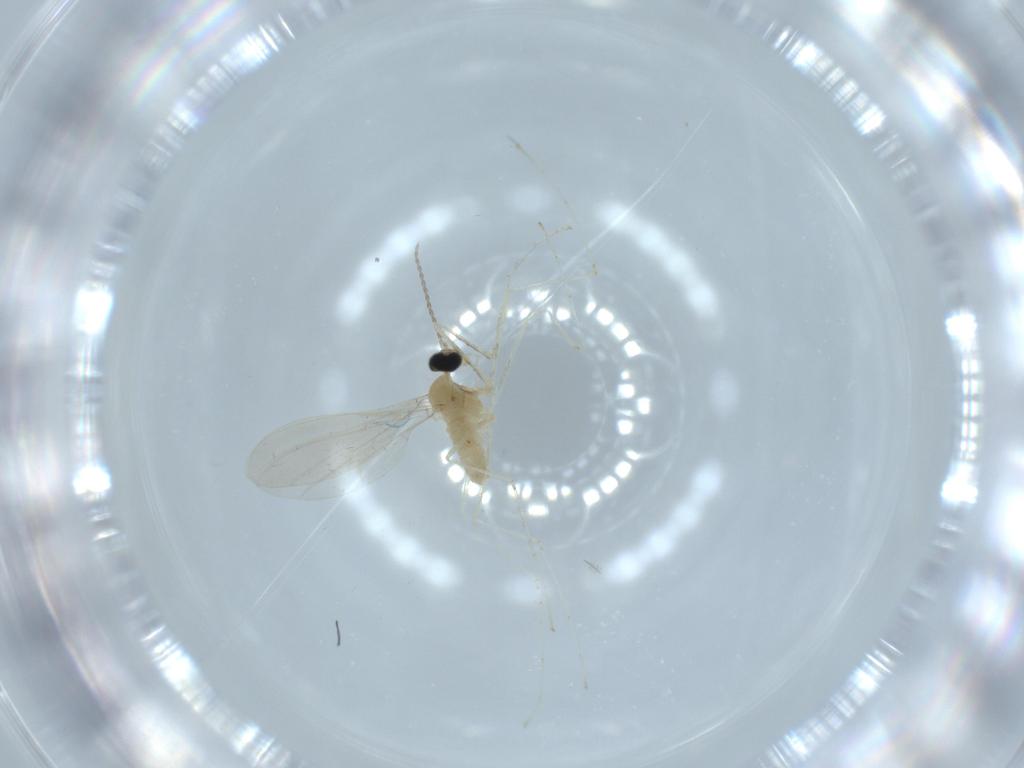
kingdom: Animalia
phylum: Arthropoda
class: Insecta
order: Diptera
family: Cecidomyiidae
